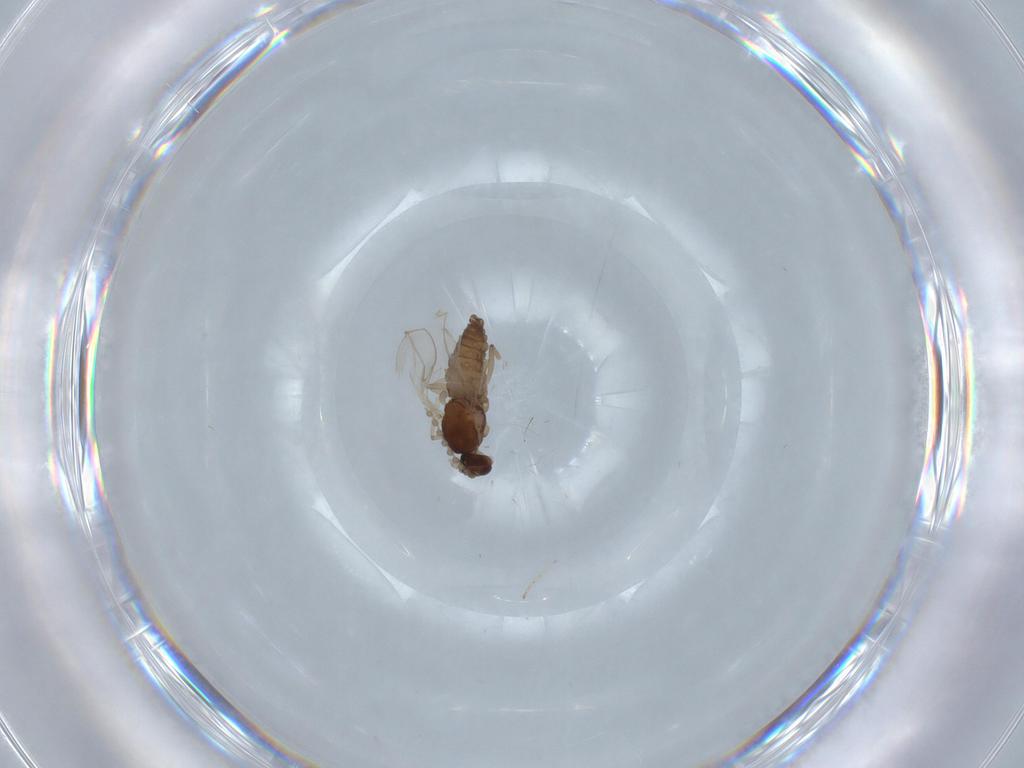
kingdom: Animalia
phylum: Arthropoda
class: Insecta
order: Diptera
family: Cecidomyiidae
